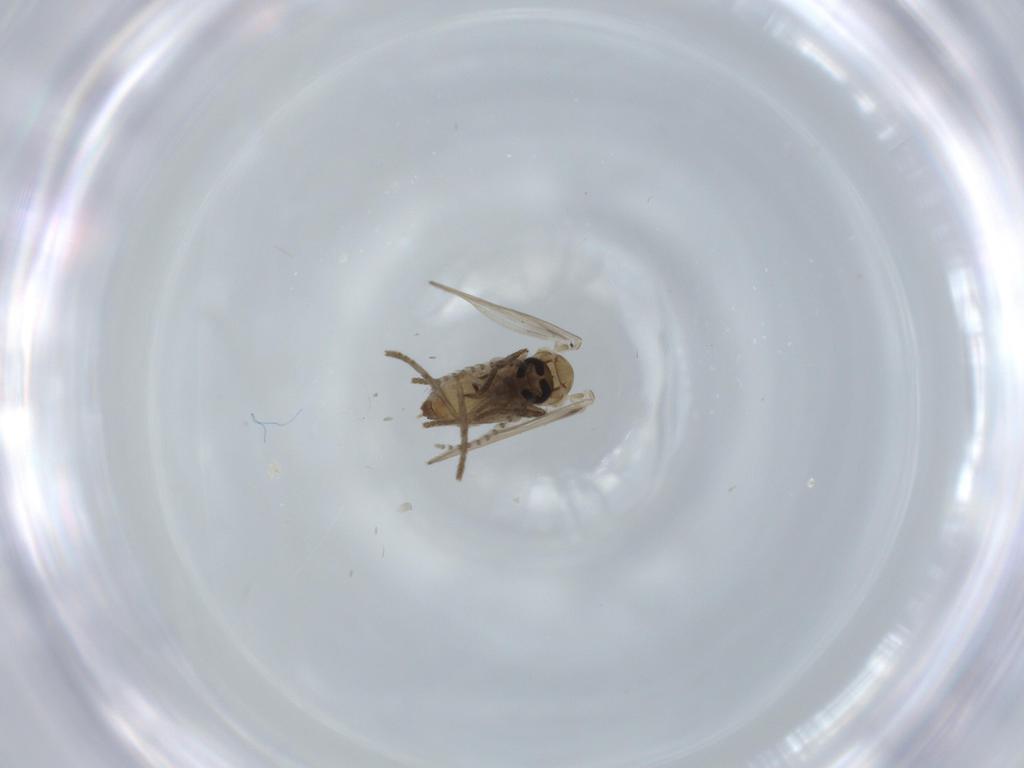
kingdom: Animalia
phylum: Arthropoda
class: Insecta
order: Diptera
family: Psychodidae
